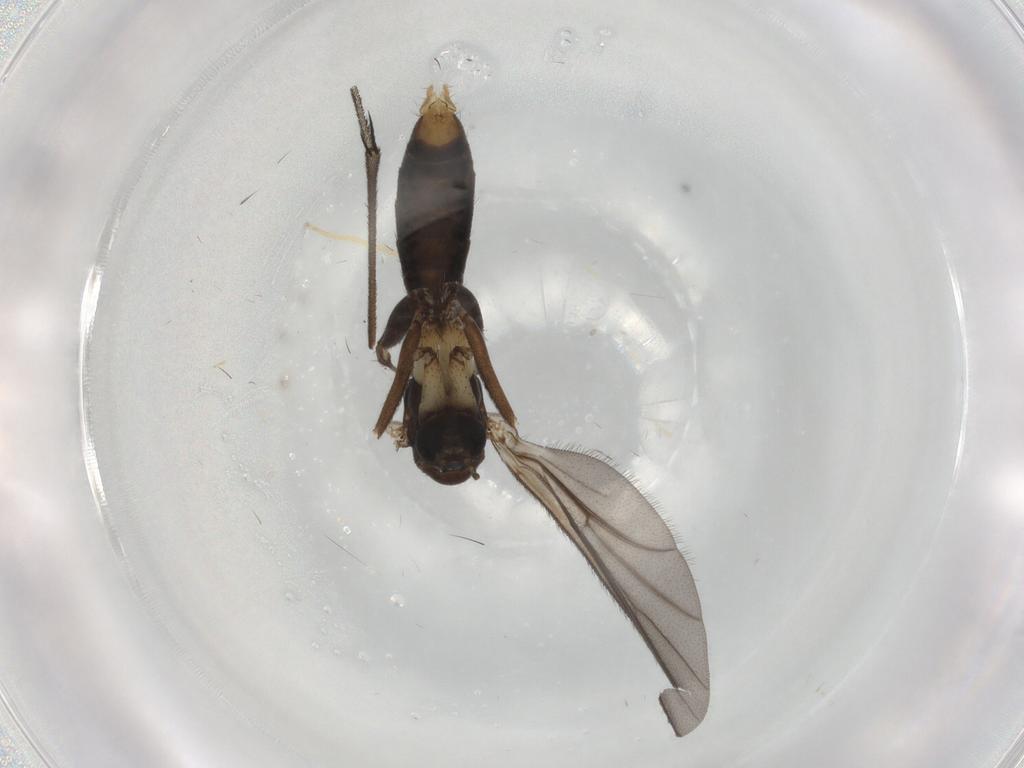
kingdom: Animalia
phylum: Arthropoda
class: Insecta
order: Diptera
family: Ditomyiidae
